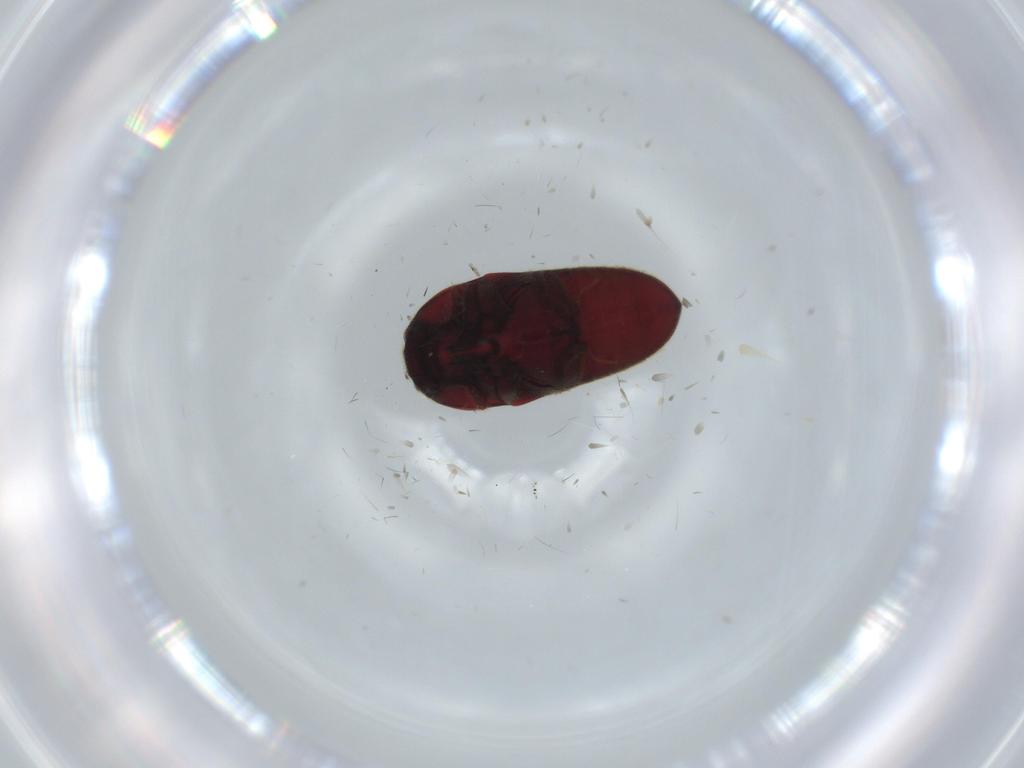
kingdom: Animalia
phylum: Arthropoda
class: Insecta
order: Coleoptera
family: Throscidae
